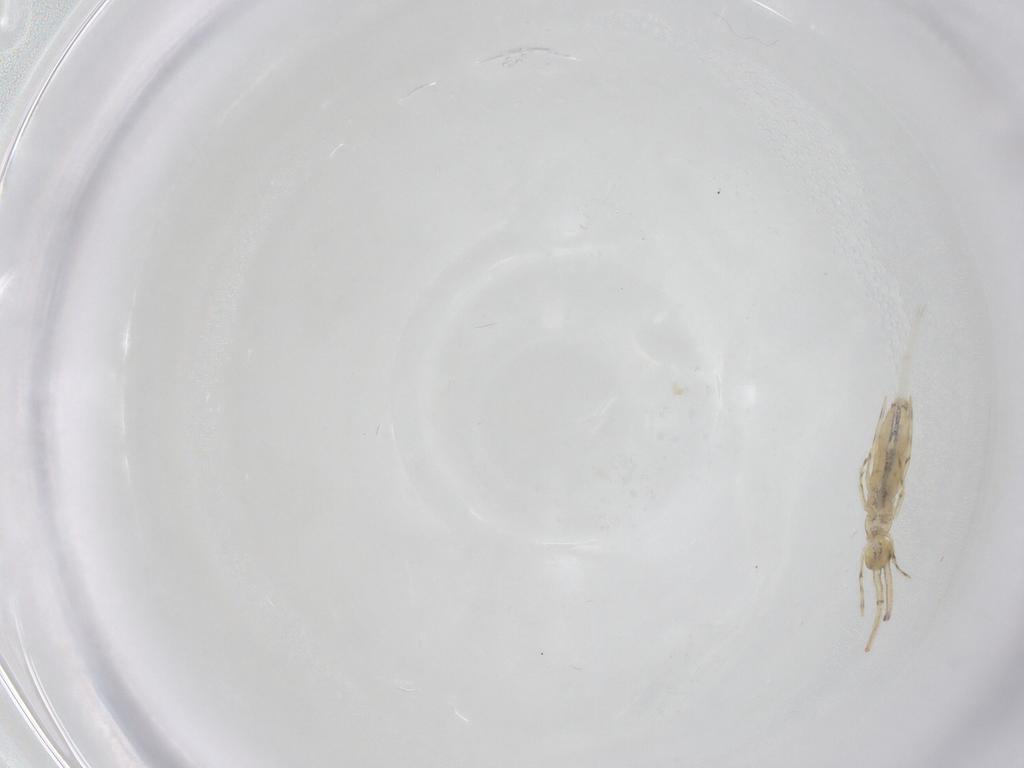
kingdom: Animalia
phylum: Arthropoda
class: Collembola
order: Entomobryomorpha
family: Paronellidae
